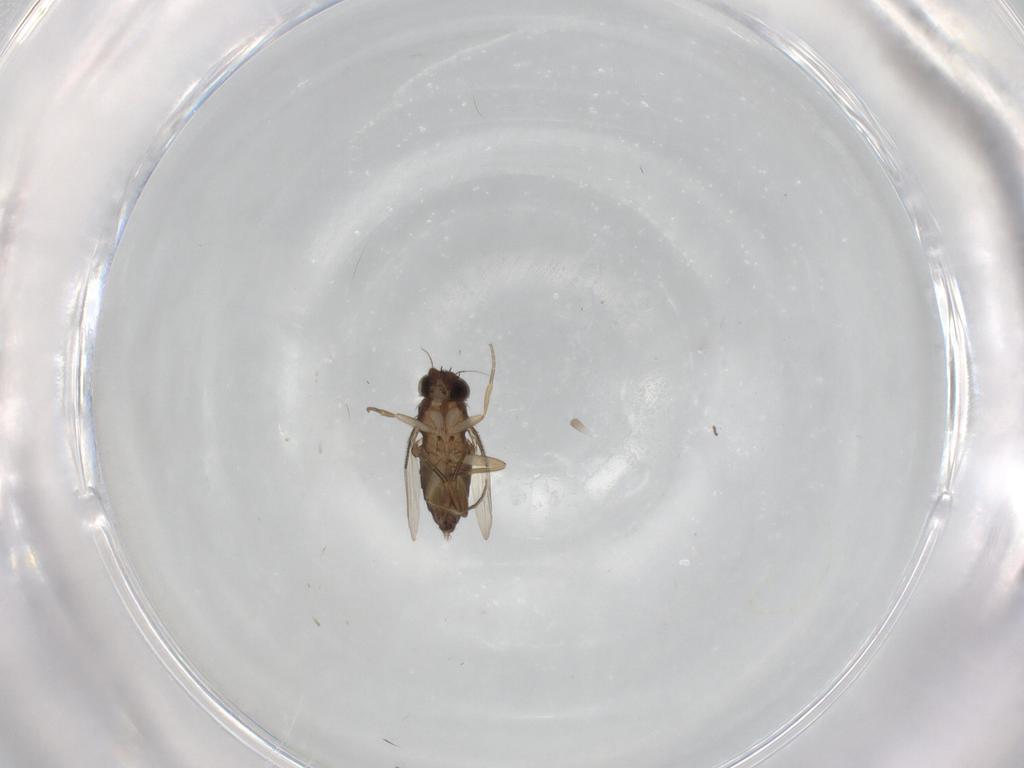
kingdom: Animalia
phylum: Arthropoda
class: Insecta
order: Diptera
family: Phoridae
